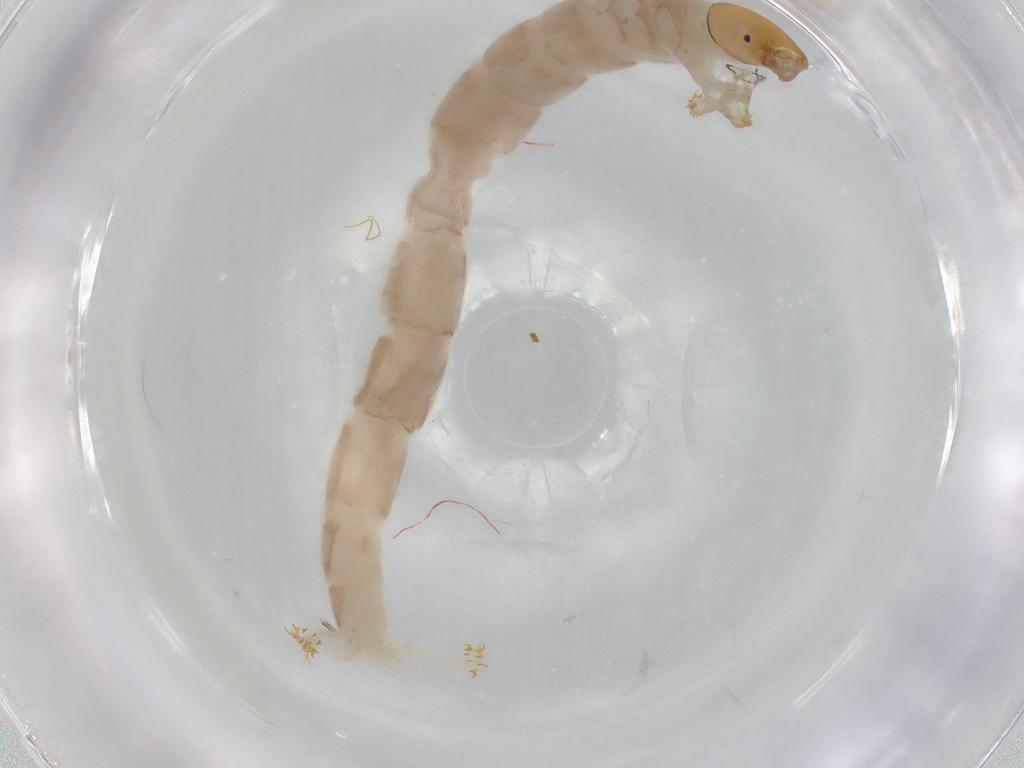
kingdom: Animalia
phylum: Arthropoda
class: Insecta
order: Diptera
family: Chironomidae
